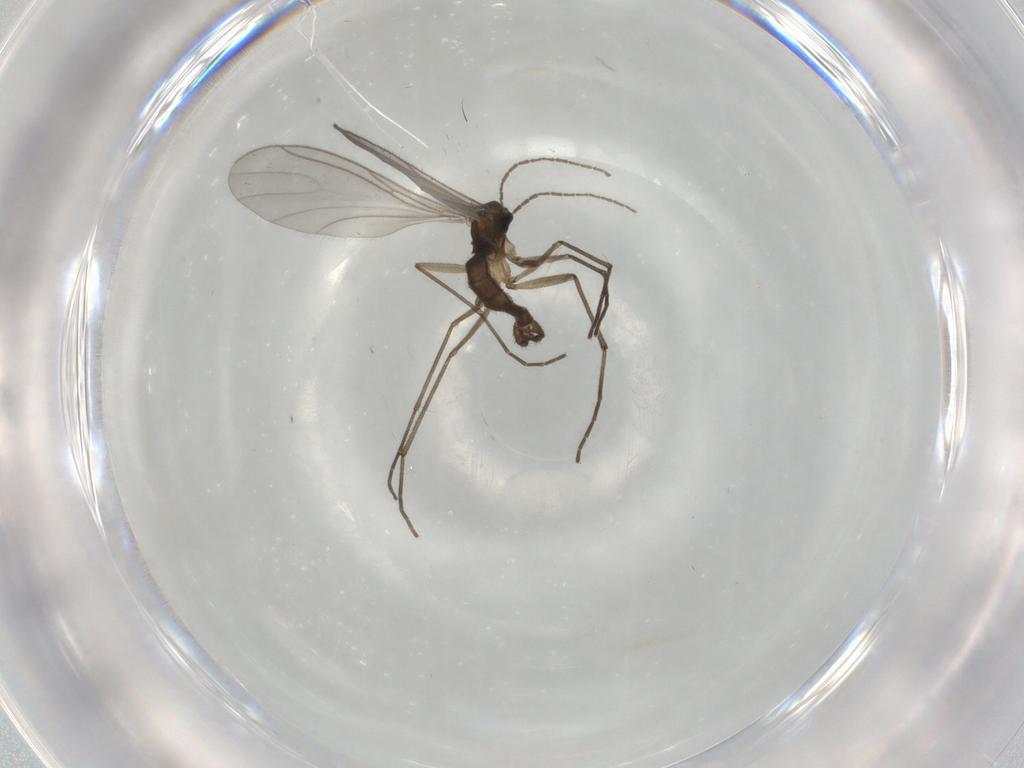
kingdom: Animalia
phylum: Arthropoda
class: Insecta
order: Diptera
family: Sciaridae
